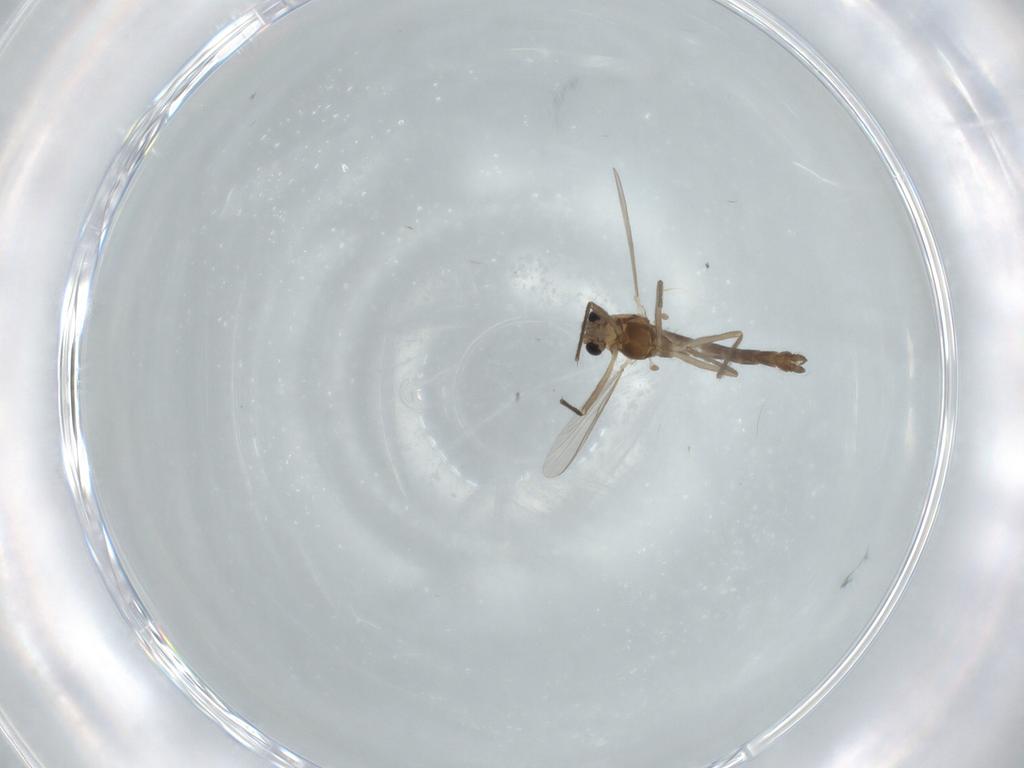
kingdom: Animalia
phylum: Arthropoda
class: Insecta
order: Diptera
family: Chironomidae
